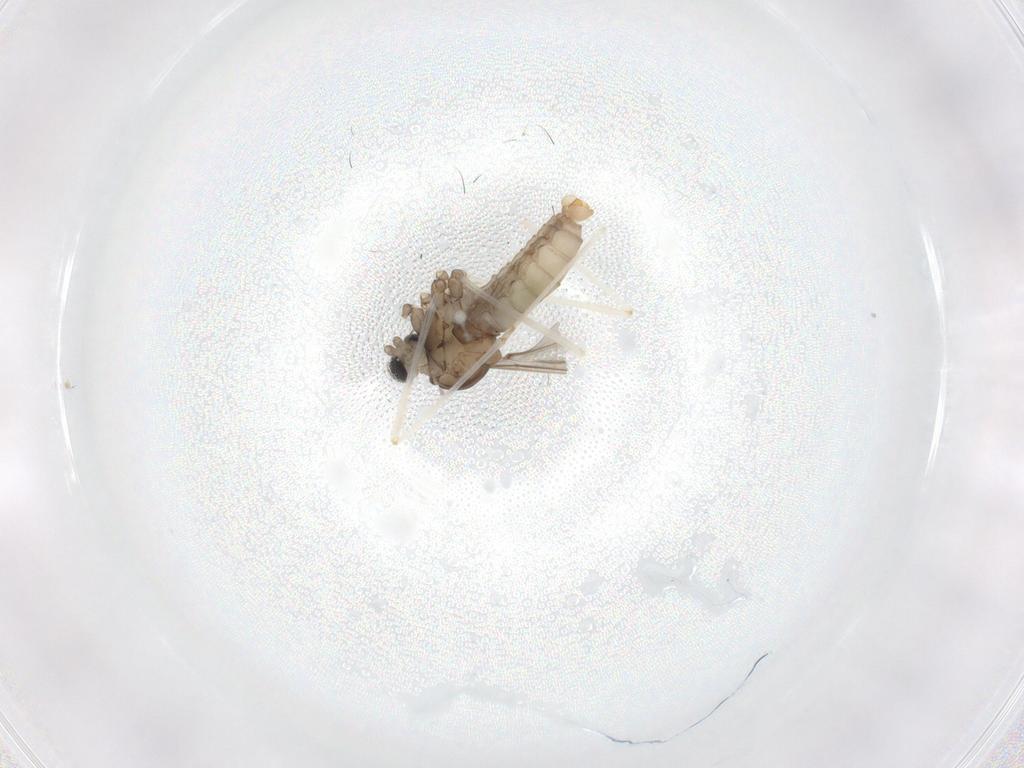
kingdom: Animalia
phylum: Arthropoda
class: Insecta
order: Diptera
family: Cecidomyiidae
